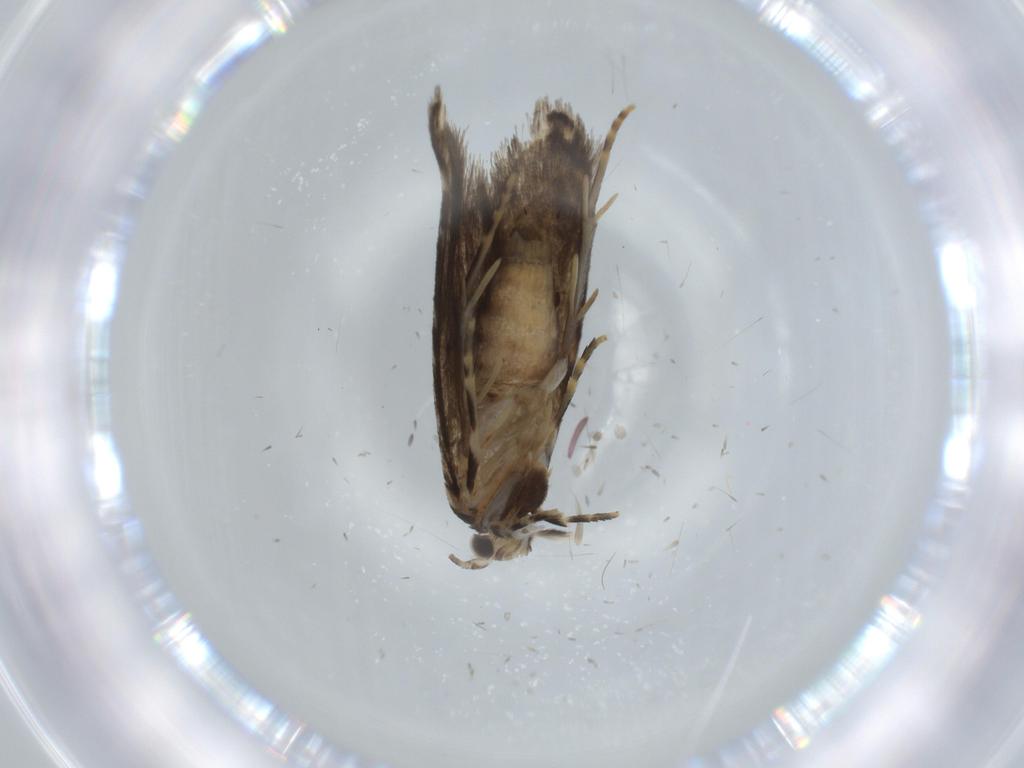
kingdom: Animalia
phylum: Arthropoda
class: Insecta
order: Lepidoptera
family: Tineidae
